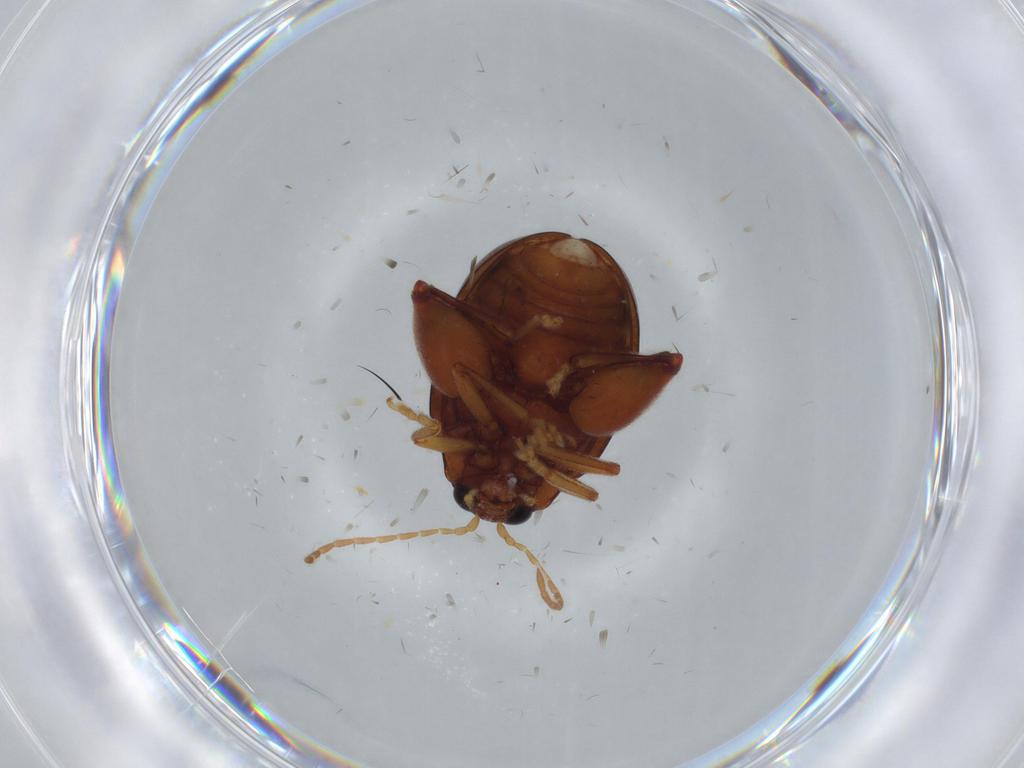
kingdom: Animalia
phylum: Arthropoda
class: Insecta
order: Coleoptera
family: Chrysomelidae
